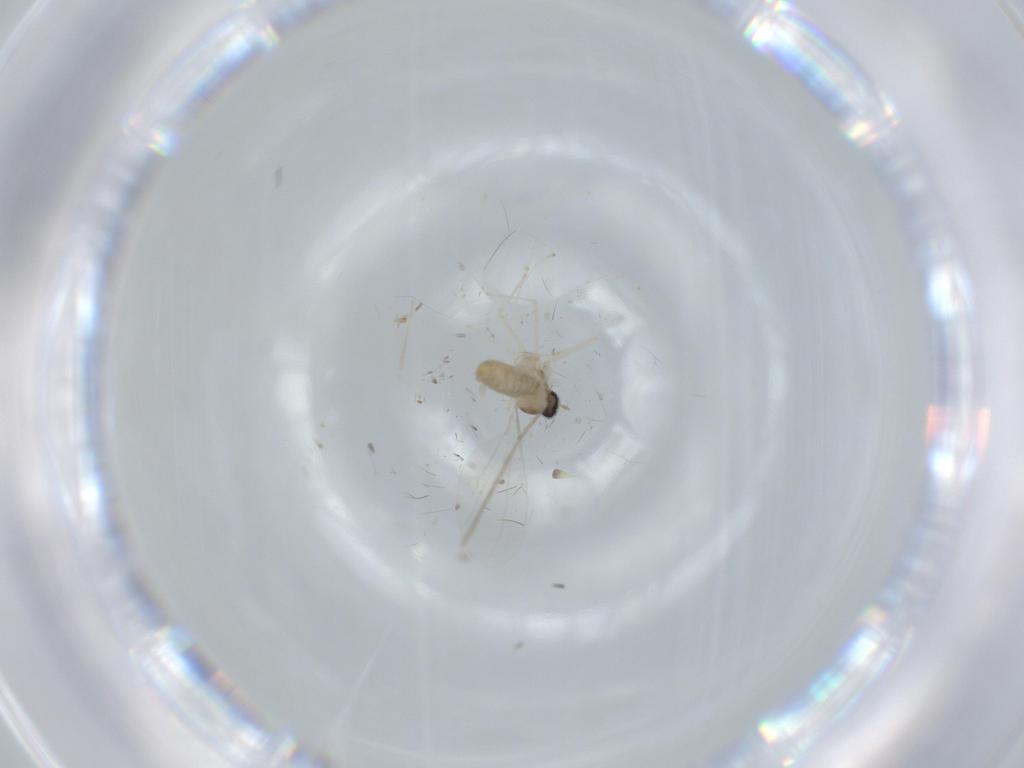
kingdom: Animalia
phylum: Arthropoda
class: Insecta
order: Diptera
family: Cecidomyiidae
